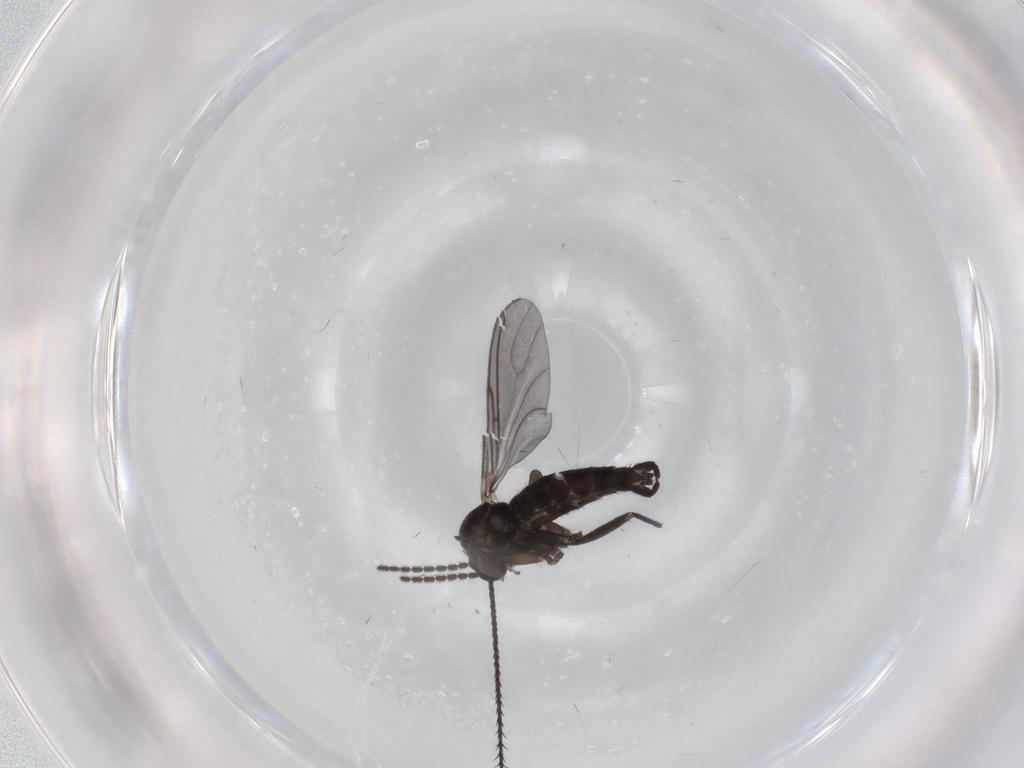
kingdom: Animalia
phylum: Arthropoda
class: Insecta
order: Diptera
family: Sciaridae
